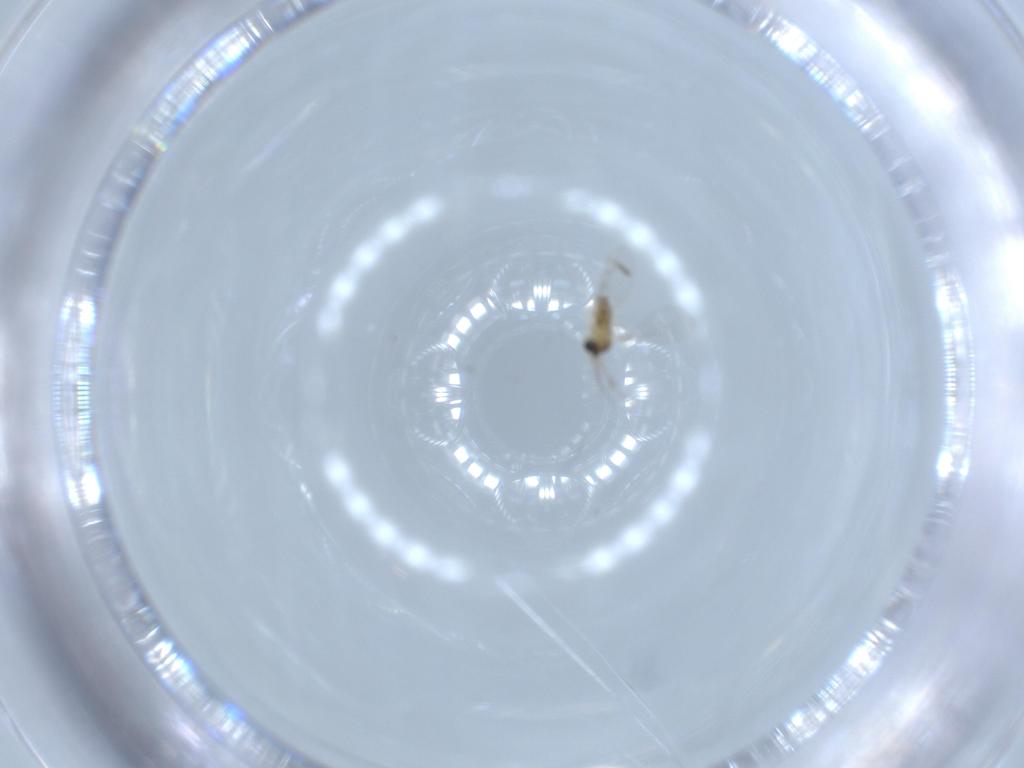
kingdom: Animalia
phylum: Arthropoda
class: Insecta
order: Diptera
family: Cecidomyiidae
